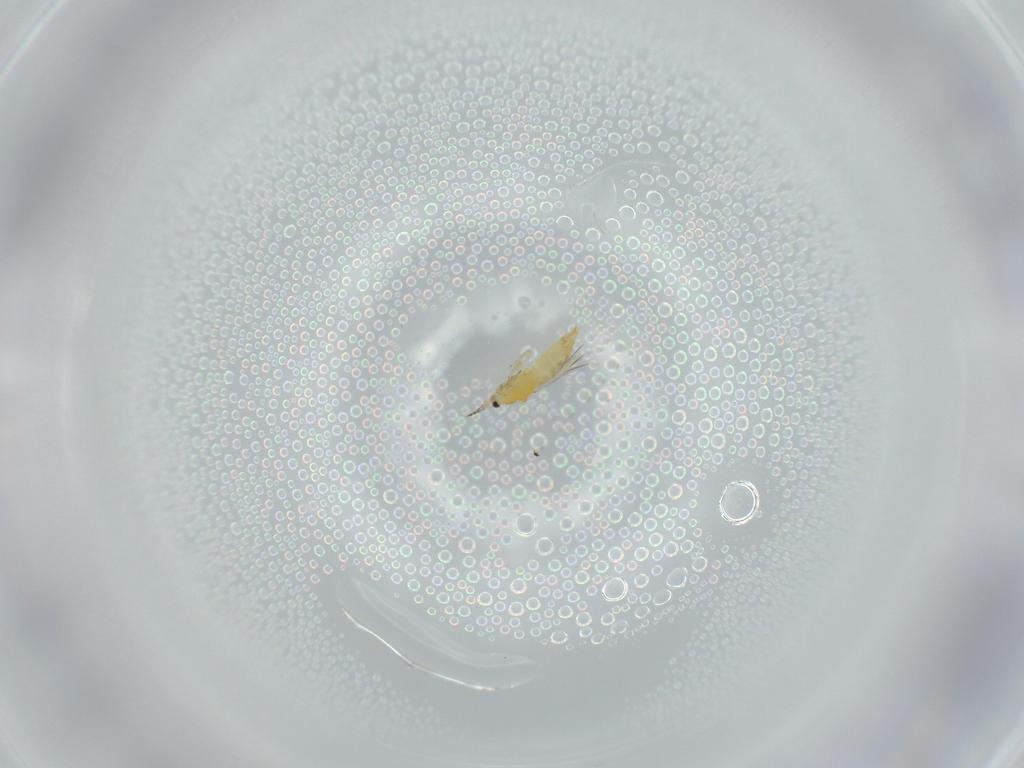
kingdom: Animalia
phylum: Arthropoda
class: Insecta
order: Thysanoptera
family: Thripidae
